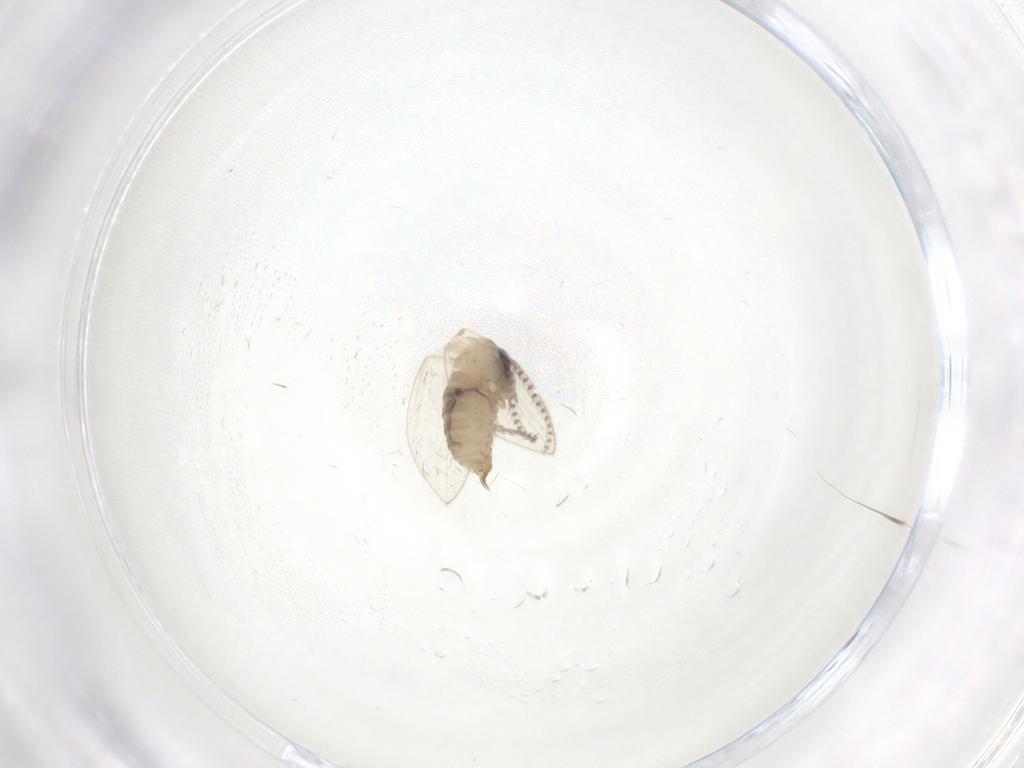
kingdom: Animalia
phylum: Arthropoda
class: Insecta
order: Diptera
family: Psychodidae
